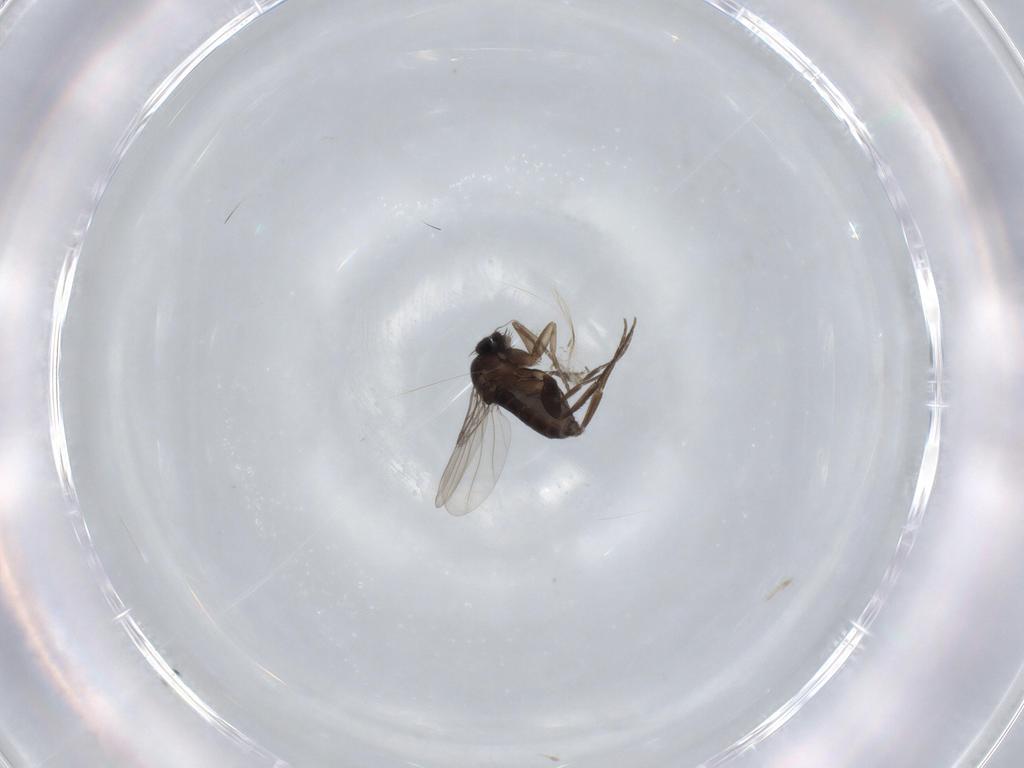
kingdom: Animalia
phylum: Arthropoda
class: Insecta
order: Diptera
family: Phoridae
